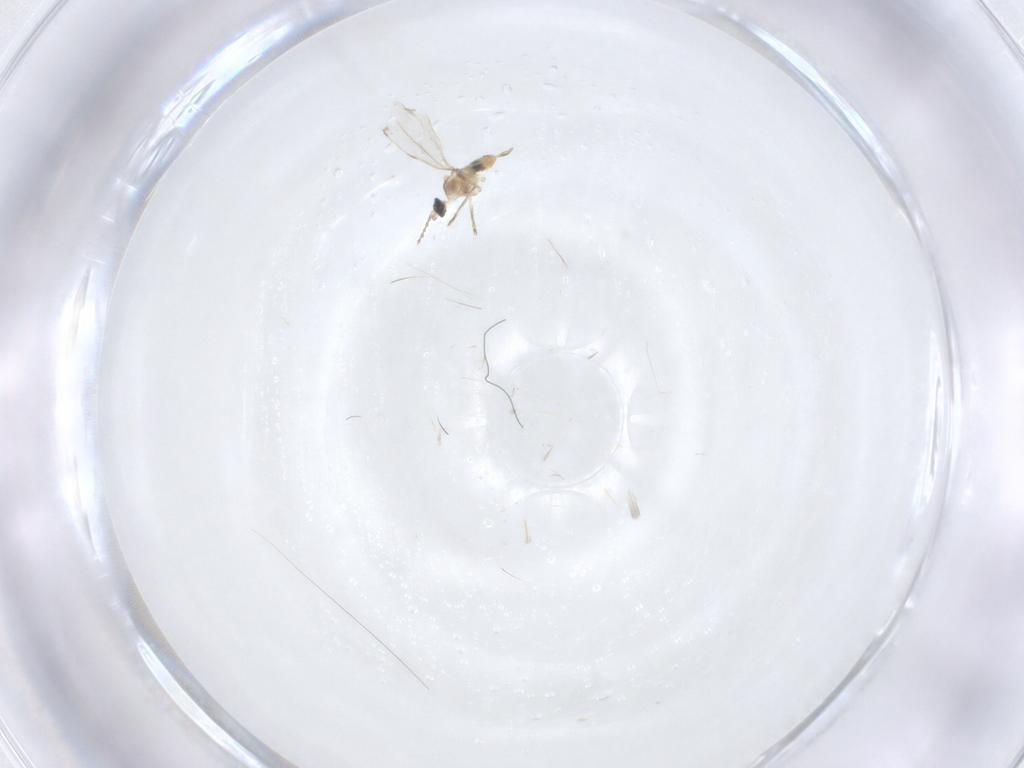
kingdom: Animalia
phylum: Arthropoda
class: Insecta
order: Diptera
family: Cecidomyiidae
